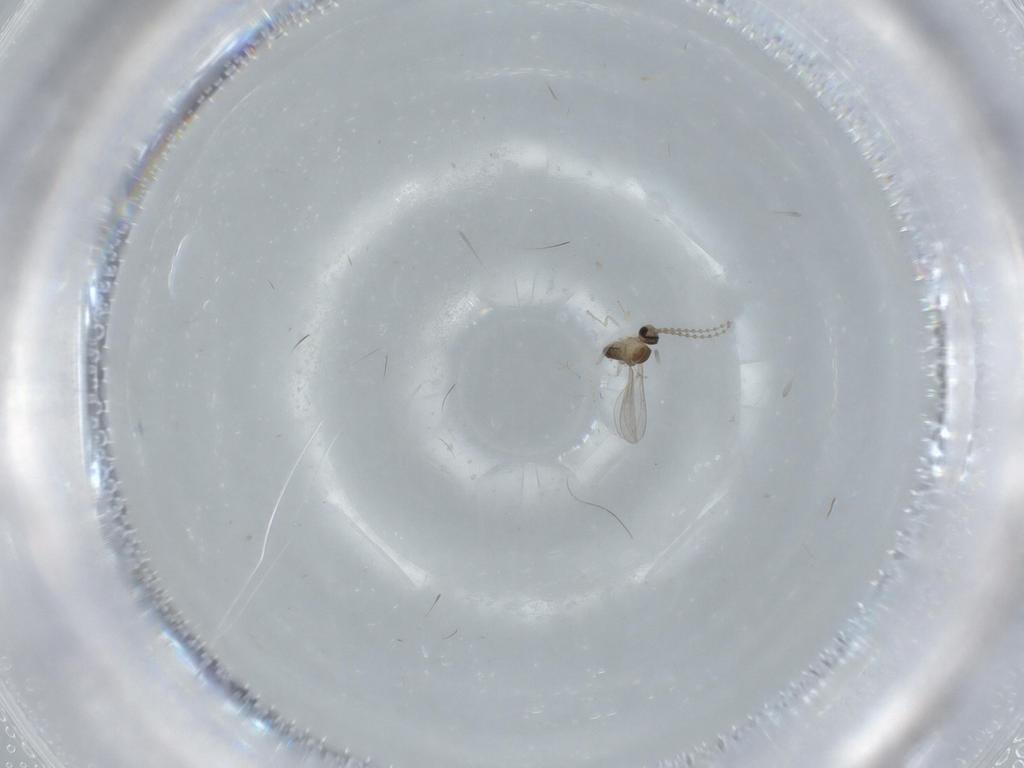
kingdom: Animalia
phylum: Arthropoda
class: Insecta
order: Diptera
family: Cecidomyiidae
